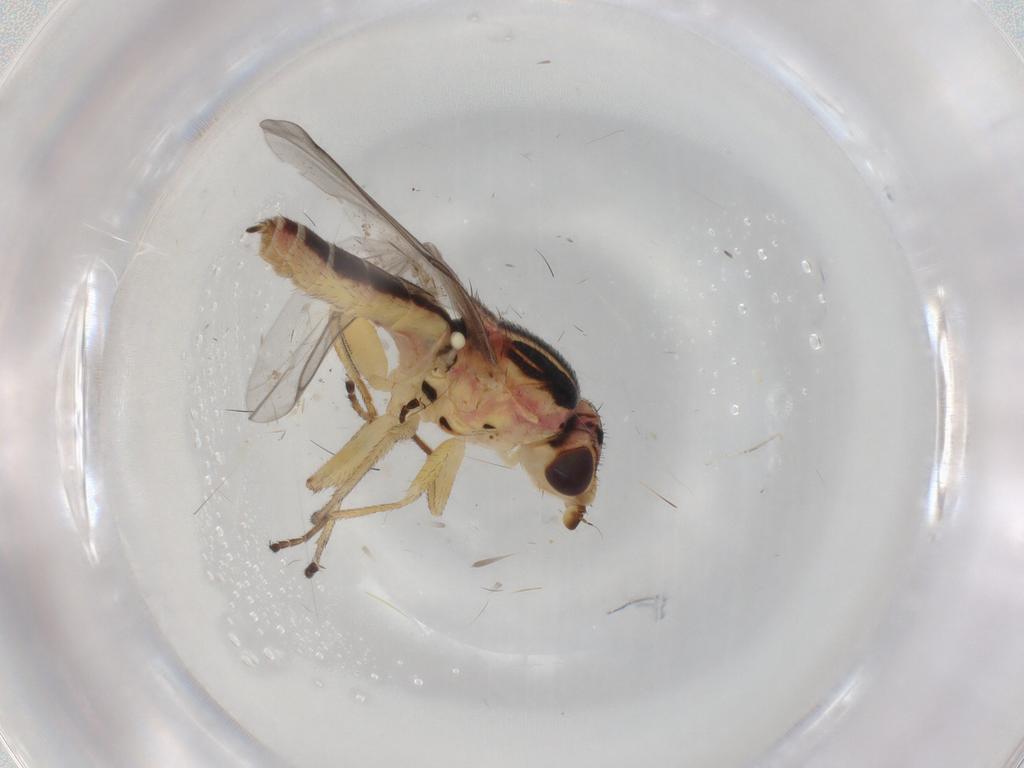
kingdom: Animalia
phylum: Arthropoda
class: Insecta
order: Diptera
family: Chloropidae
